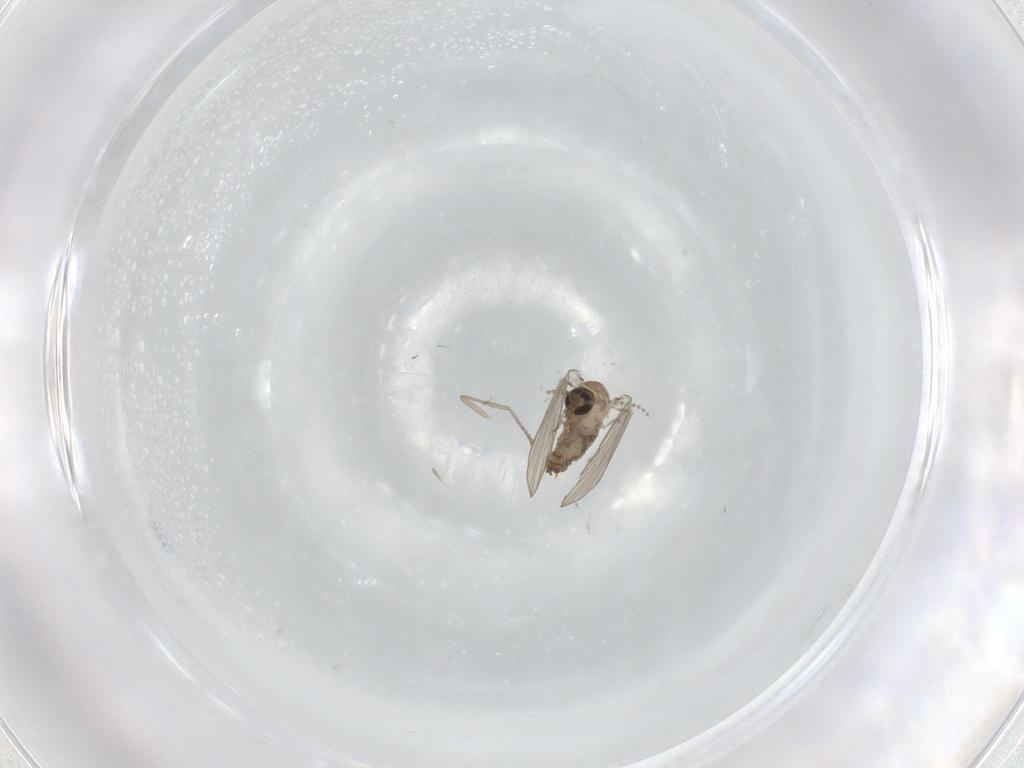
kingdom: Animalia
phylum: Arthropoda
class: Insecta
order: Diptera
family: Psychodidae
